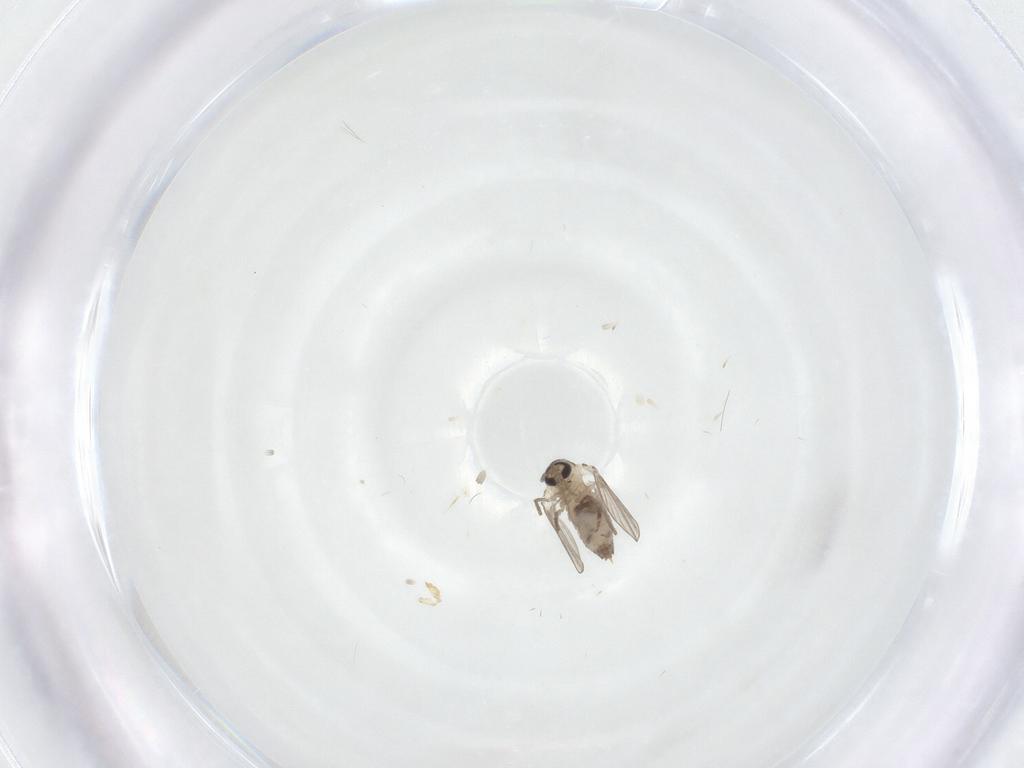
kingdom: Animalia
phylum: Arthropoda
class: Insecta
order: Diptera
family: Psychodidae
